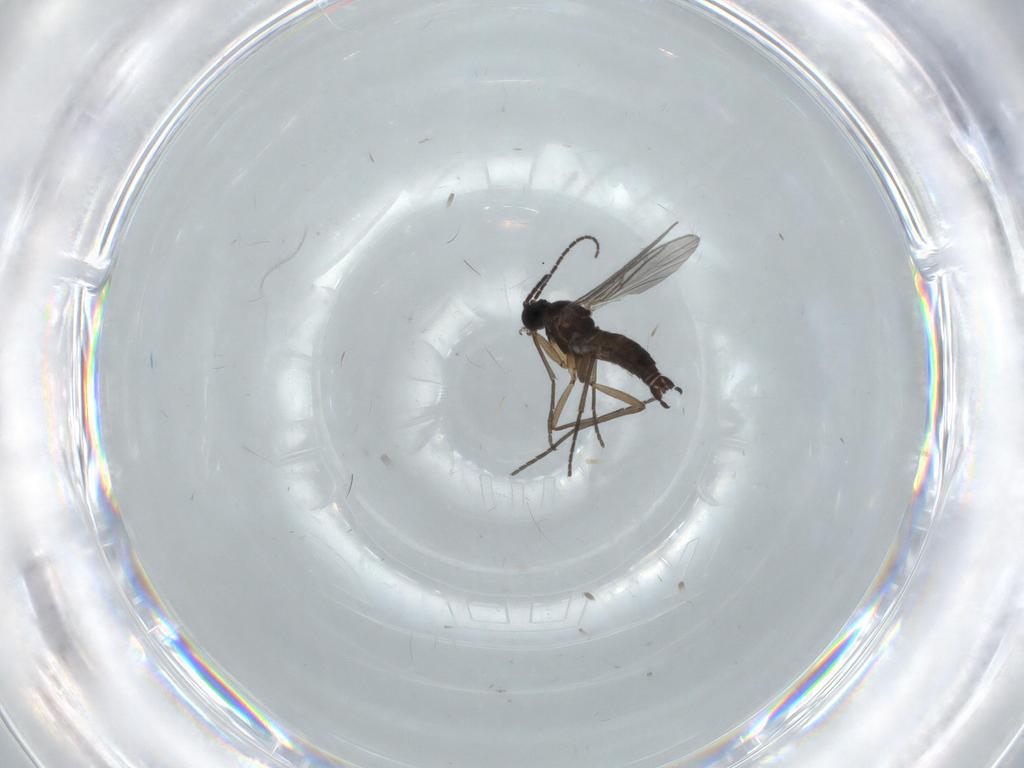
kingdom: Animalia
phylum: Arthropoda
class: Insecta
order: Diptera
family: Sciaridae
